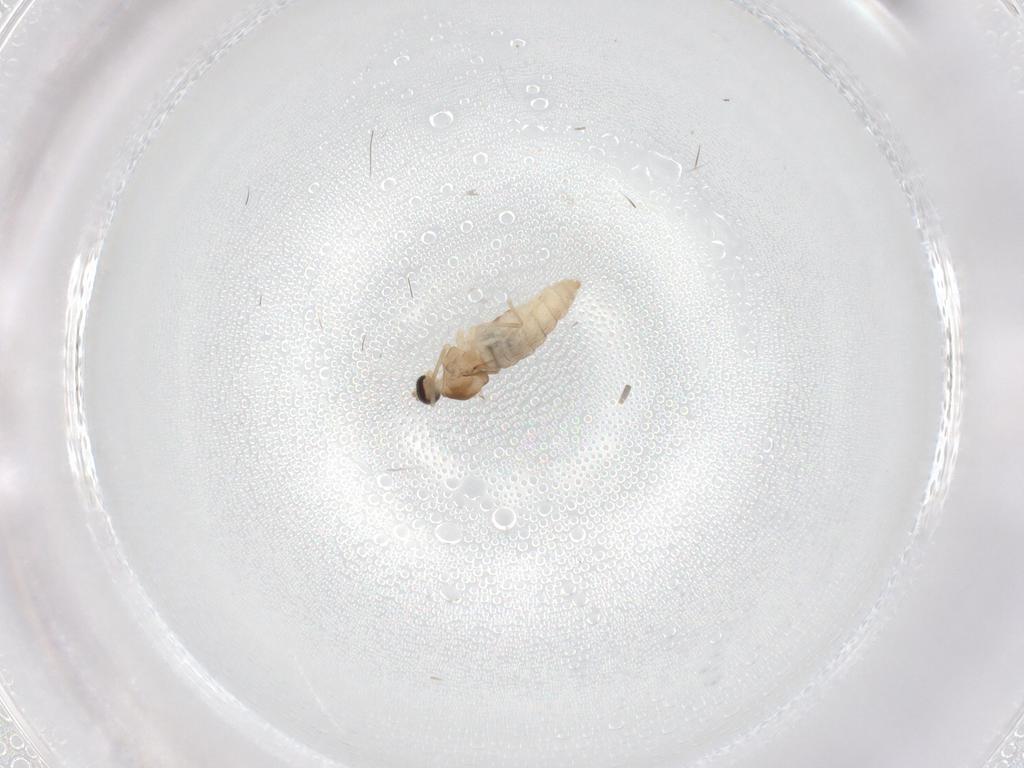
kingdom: Animalia
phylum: Arthropoda
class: Insecta
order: Diptera
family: Cecidomyiidae
